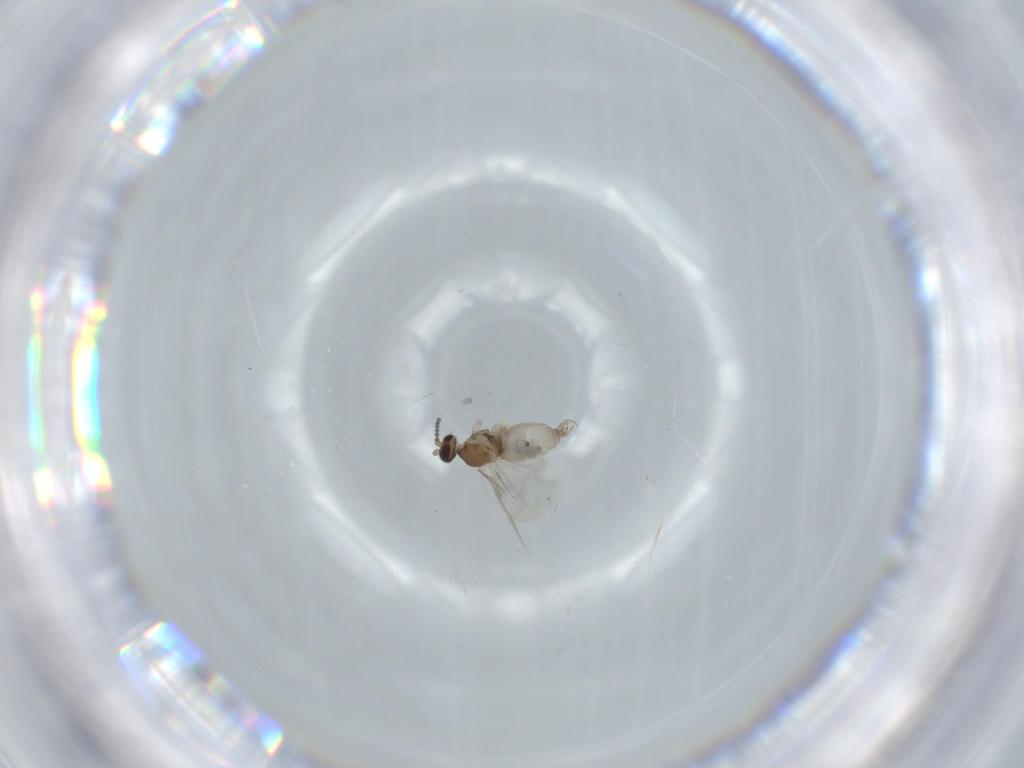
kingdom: Animalia
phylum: Arthropoda
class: Insecta
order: Diptera
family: Cecidomyiidae
